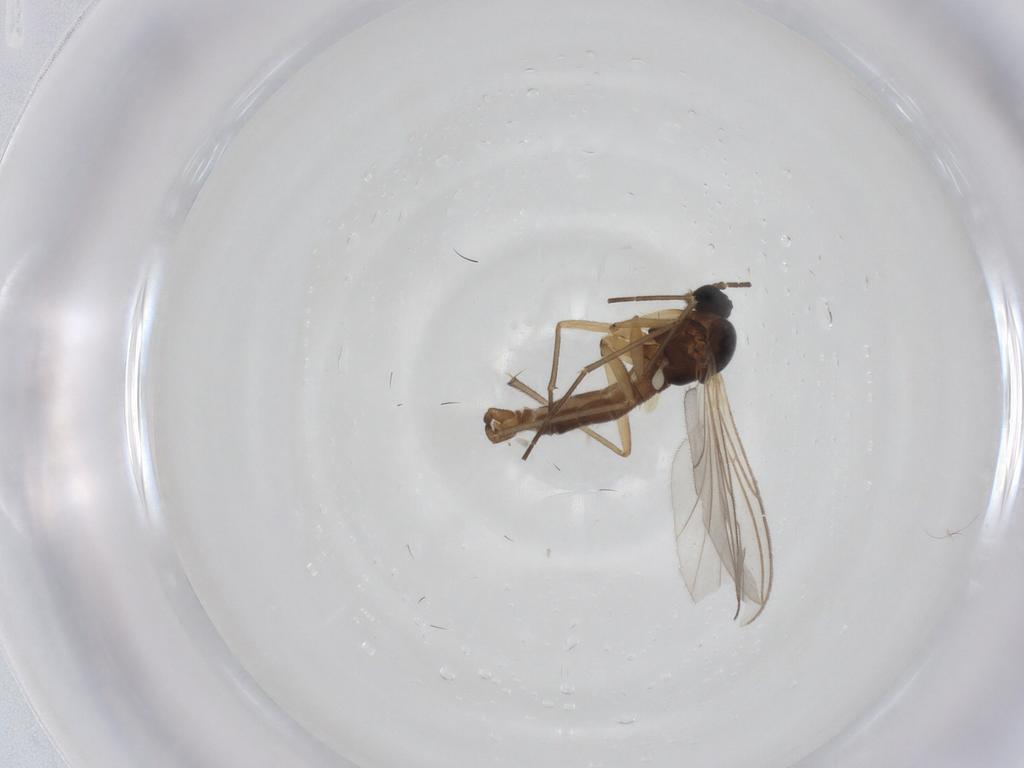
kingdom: Animalia
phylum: Arthropoda
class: Insecta
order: Diptera
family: Sciaridae
